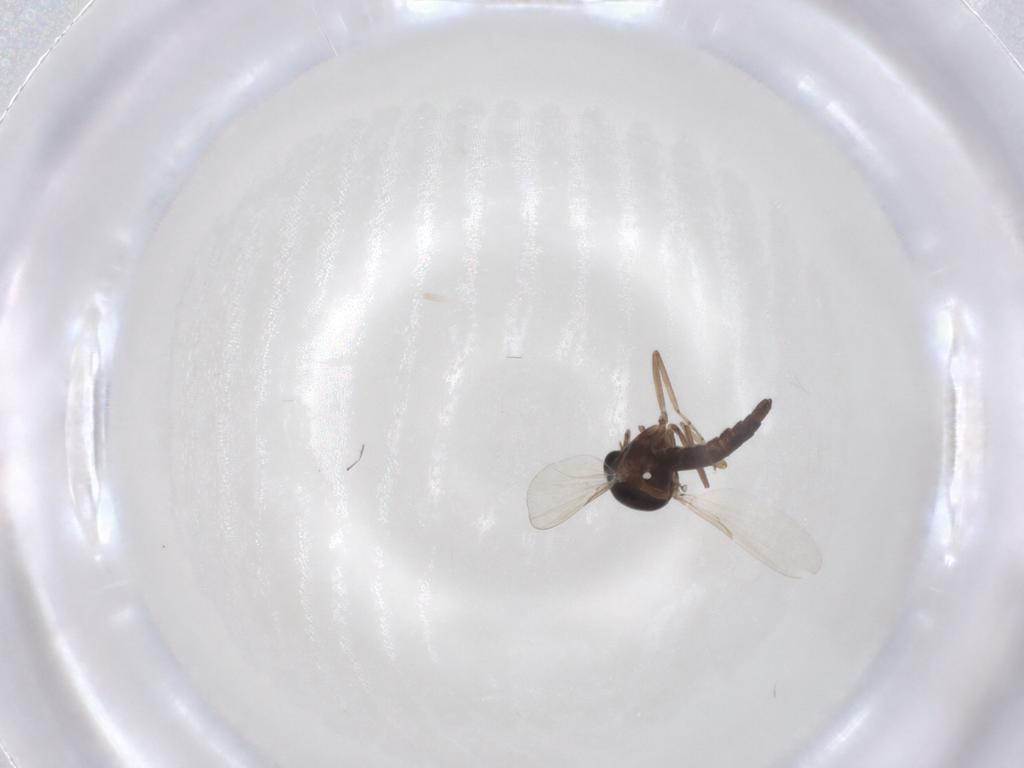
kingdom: Animalia
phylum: Arthropoda
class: Insecta
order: Diptera
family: Ceratopogonidae
